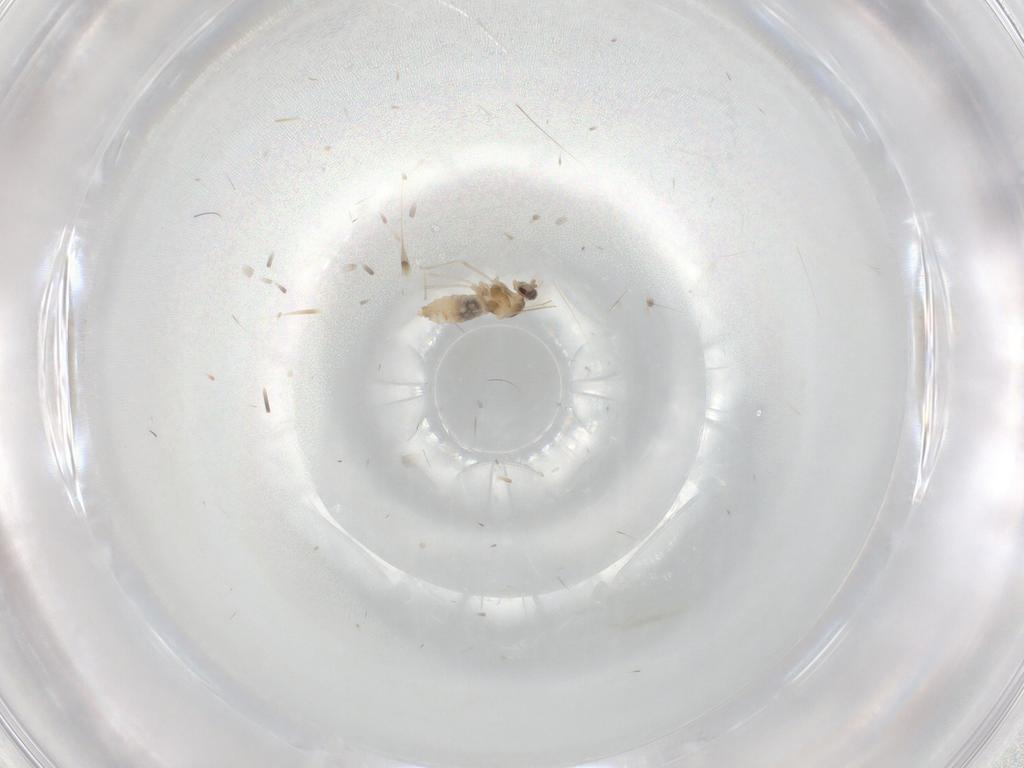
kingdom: Animalia
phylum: Arthropoda
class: Insecta
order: Diptera
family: Cecidomyiidae
